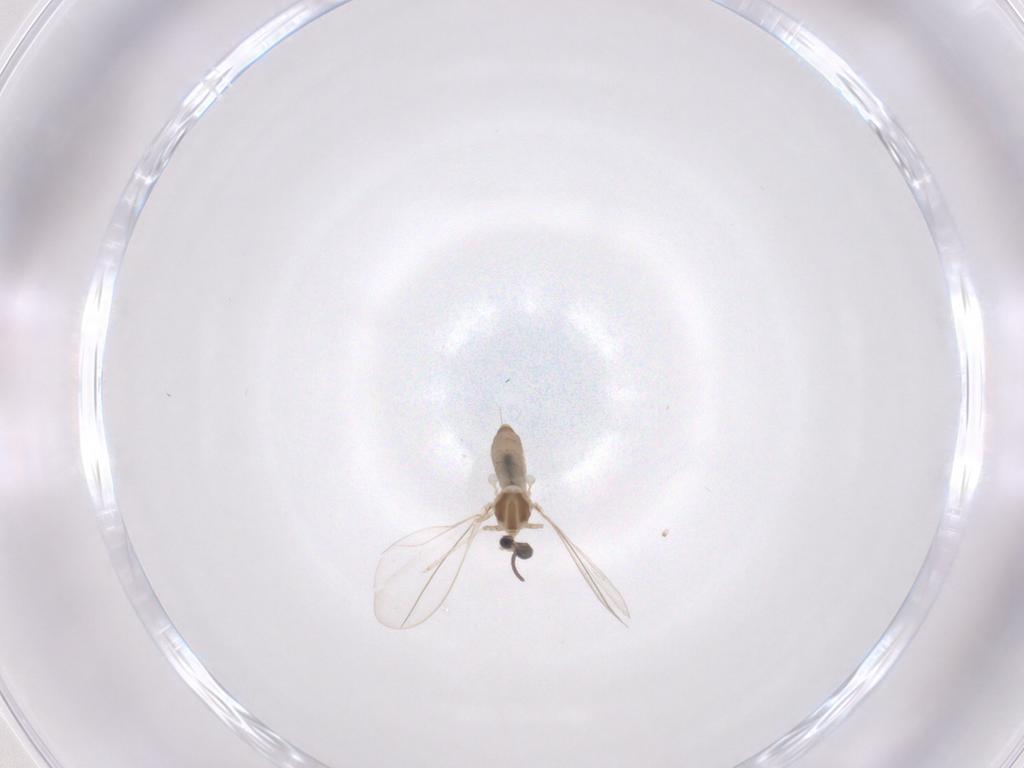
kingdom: Animalia
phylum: Arthropoda
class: Insecta
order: Diptera
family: Cecidomyiidae
